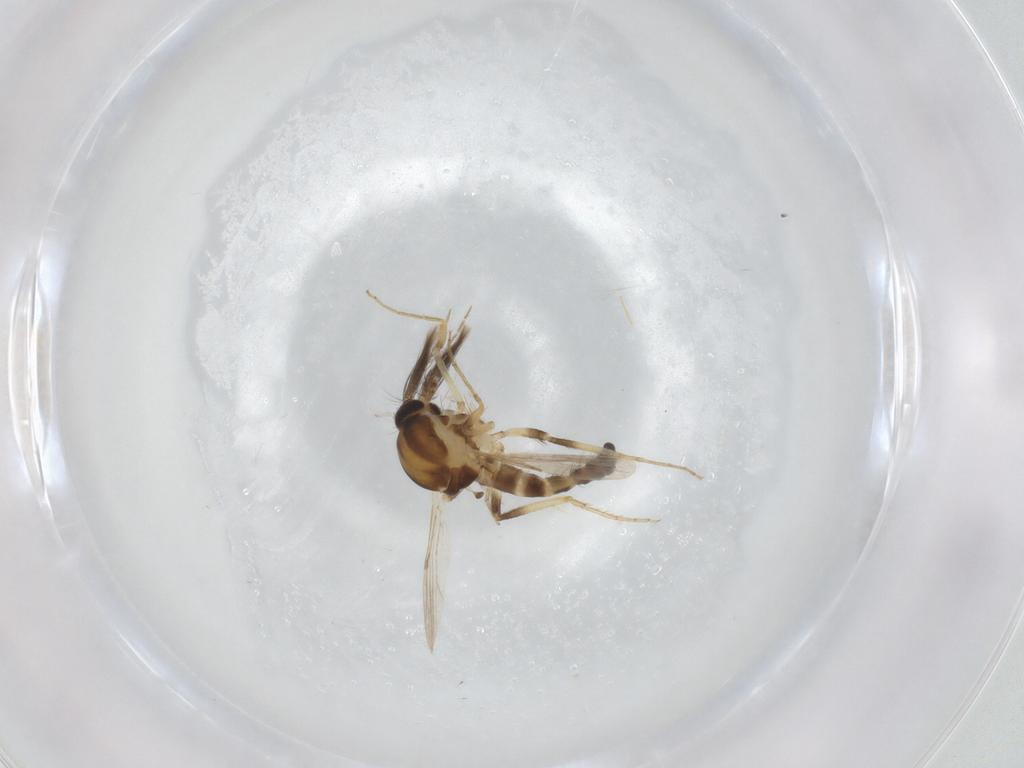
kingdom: Animalia
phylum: Arthropoda
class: Insecta
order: Diptera
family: Ceratopogonidae
